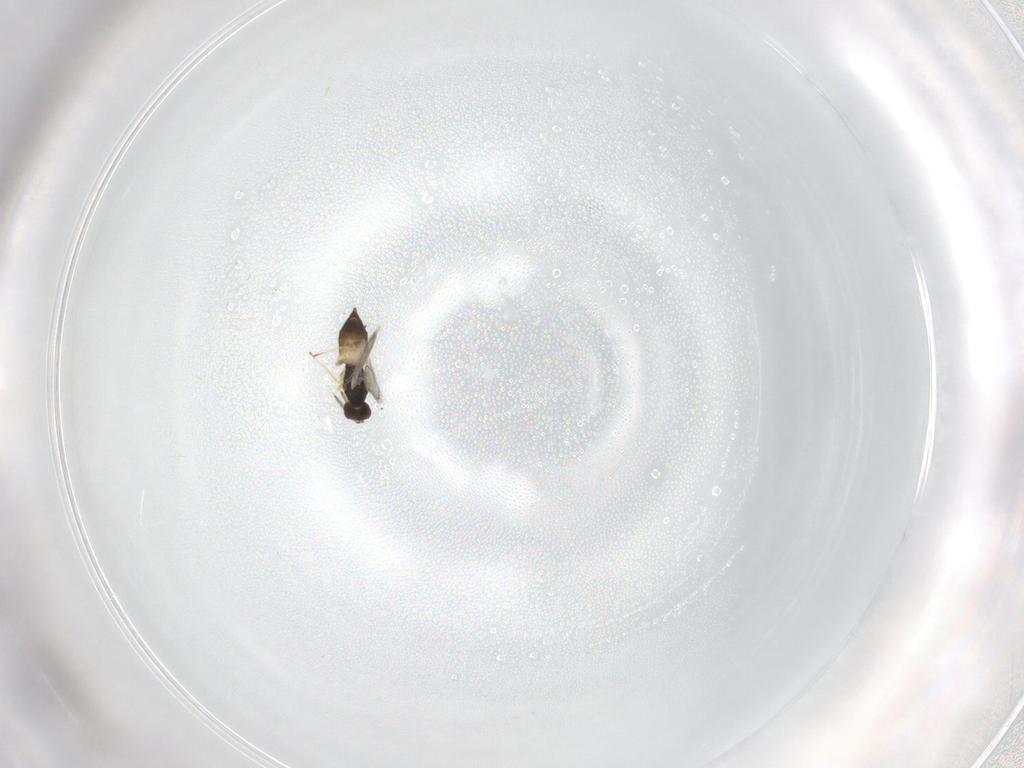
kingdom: Animalia
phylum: Arthropoda
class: Insecta
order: Hymenoptera
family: Eulophidae
